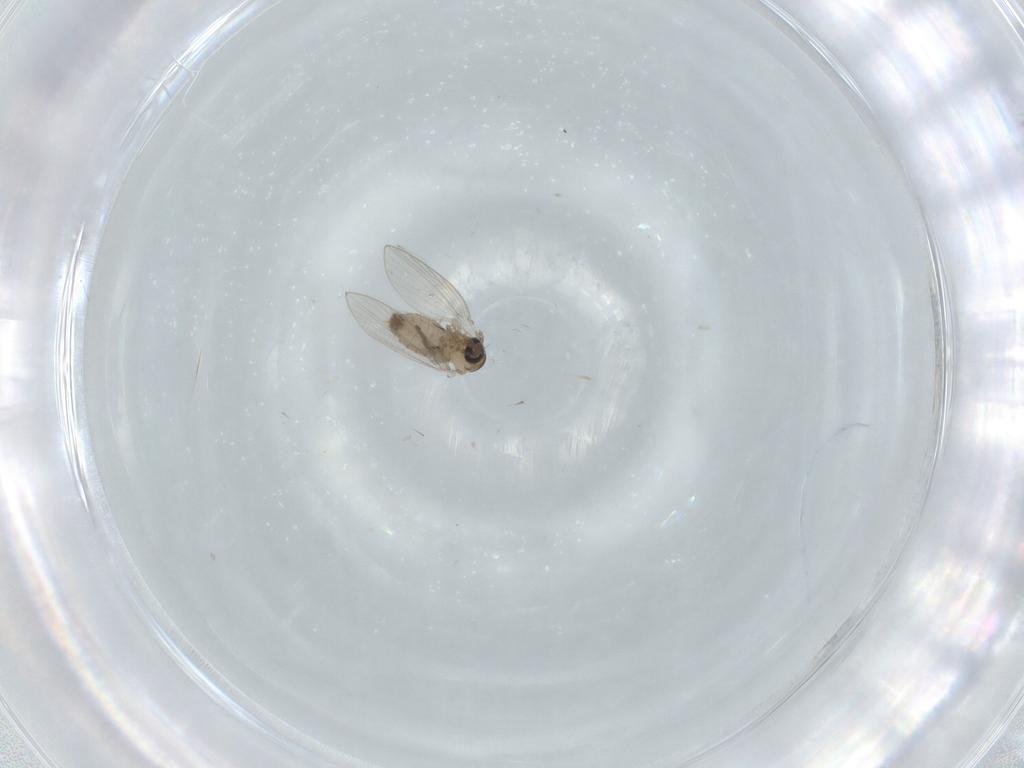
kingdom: Animalia
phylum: Arthropoda
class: Insecta
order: Diptera
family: Psychodidae
